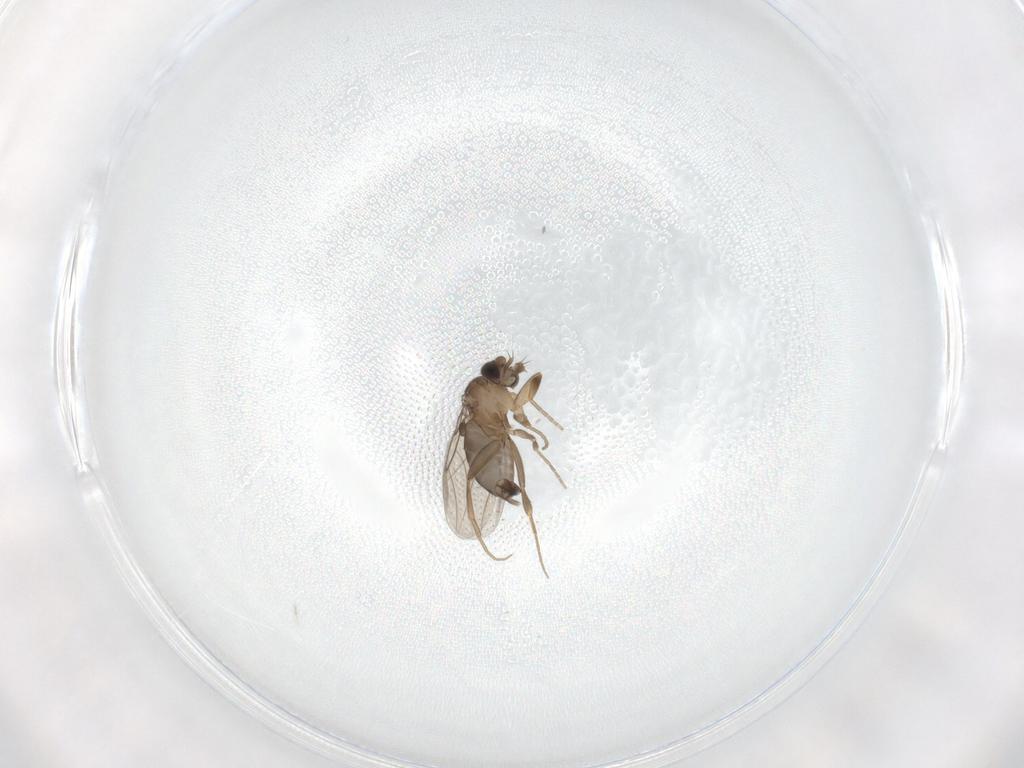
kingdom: Animalia
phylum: Arthropoda
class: Insecta
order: Diptera
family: Phoridae
